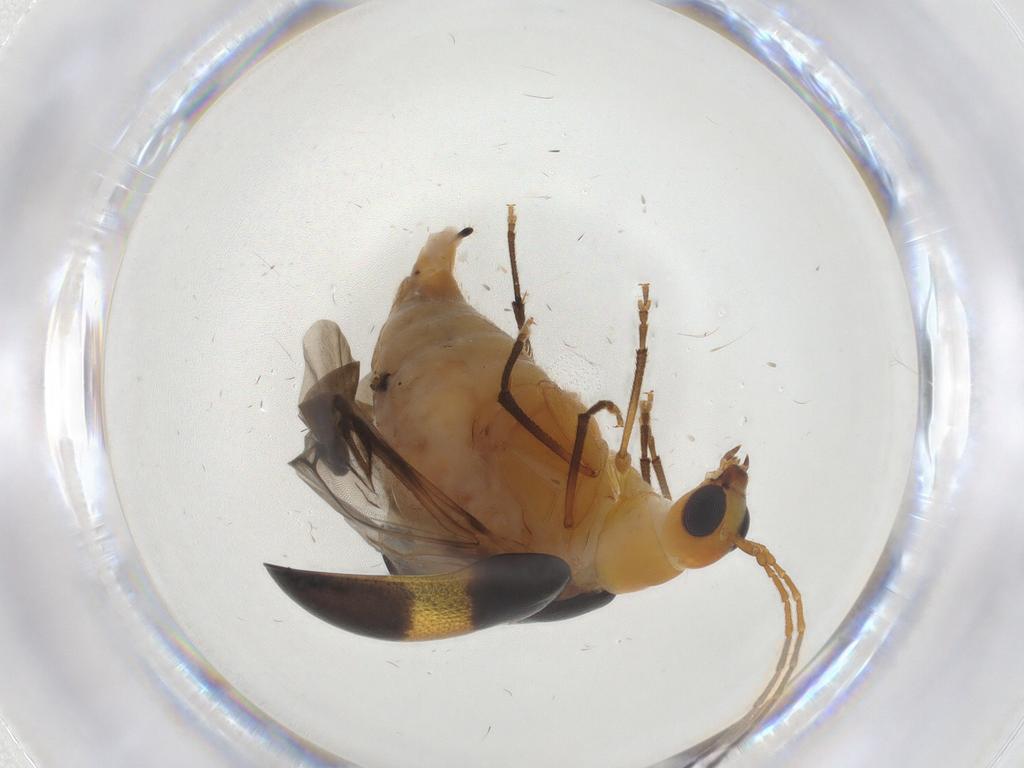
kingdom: Animalia
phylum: Arthropoda
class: Insecta
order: Coleoptera
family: Chrysomelidae
